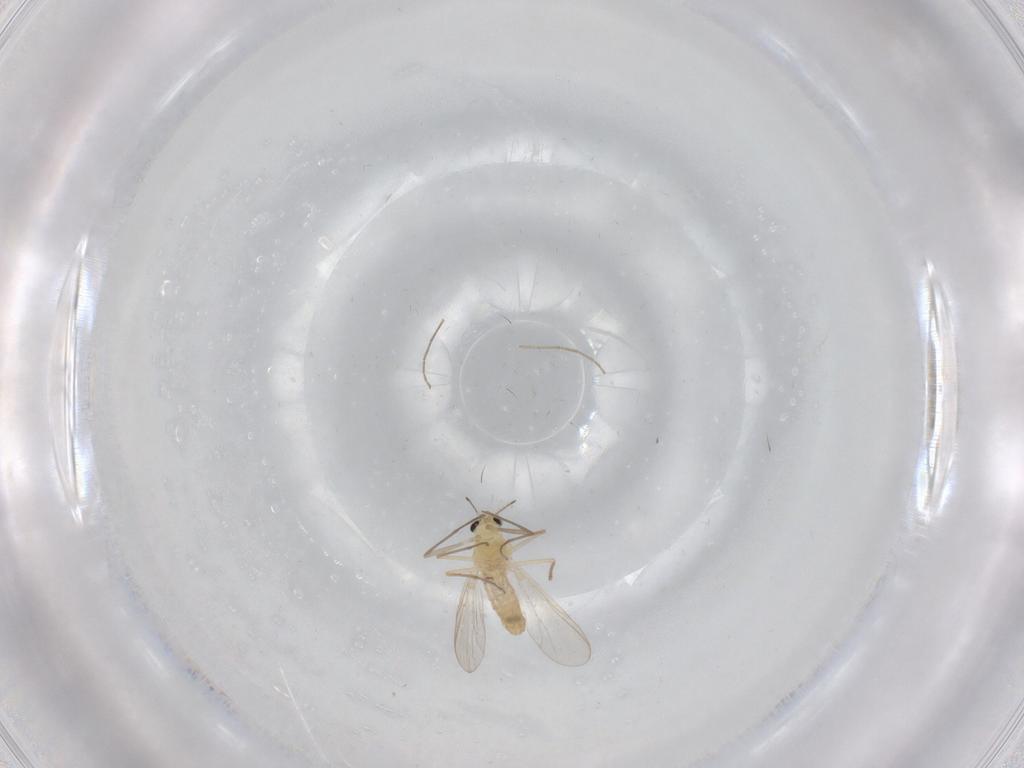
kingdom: Animalia
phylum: Arthropoda
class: Insecta
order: Diptera
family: Chironomidae
